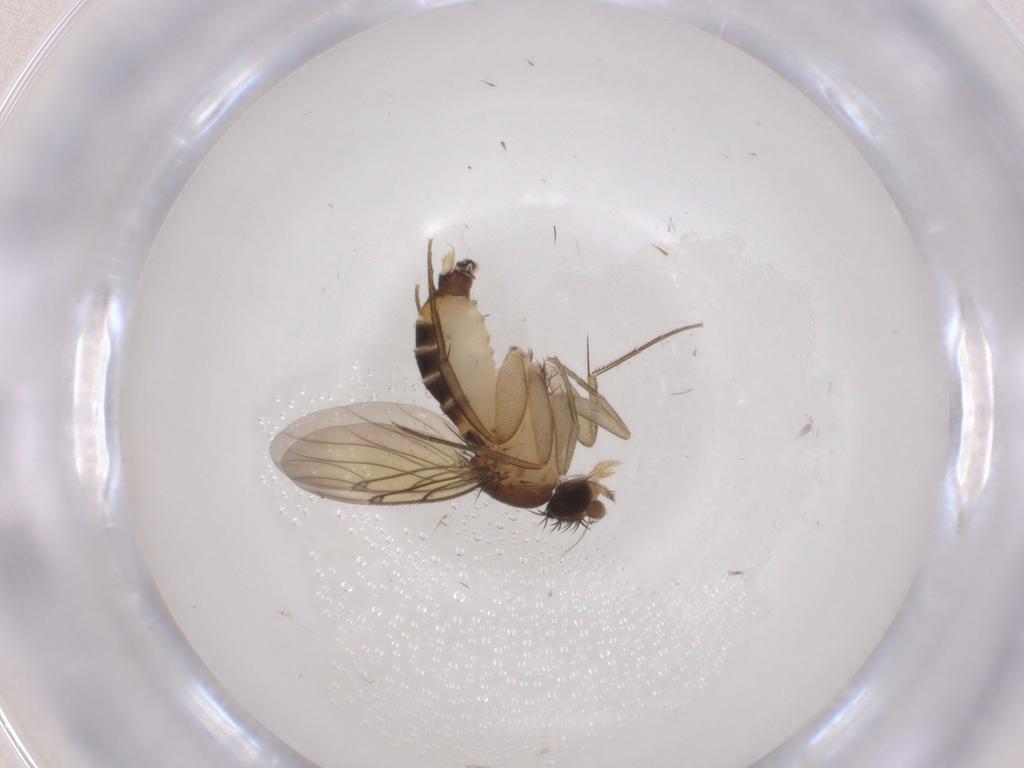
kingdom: Animalia
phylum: Arthropoda
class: Insecta
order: Diptera
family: Phoridae
